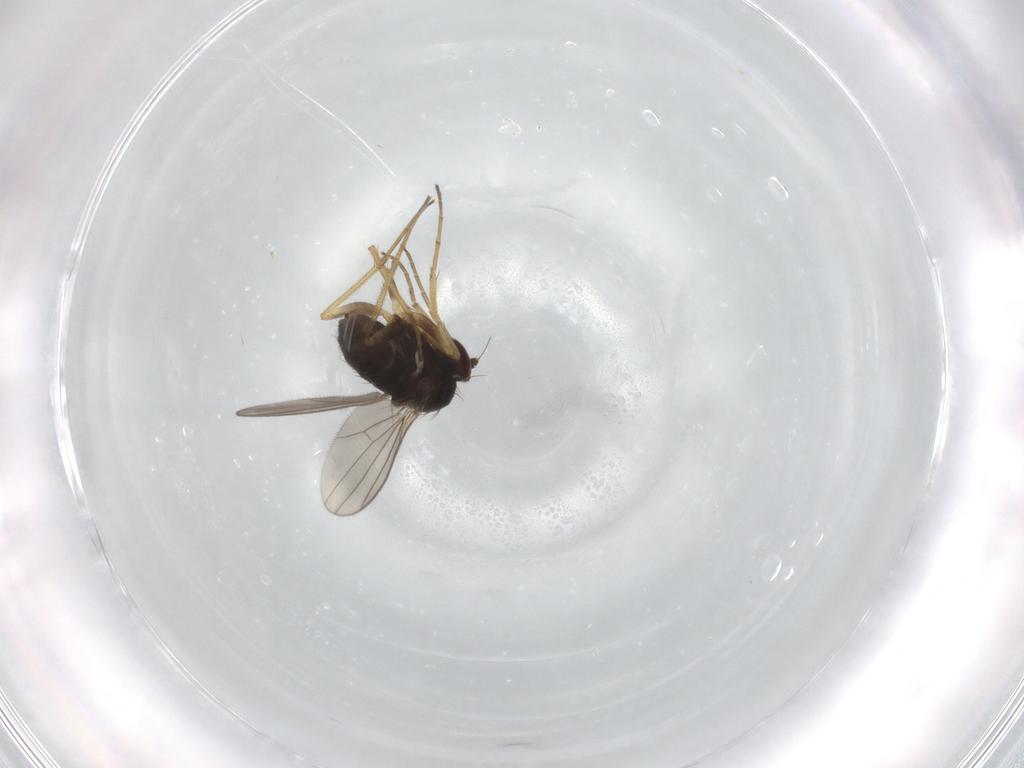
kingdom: Animalia
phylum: Arthropoda
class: Insecta
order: Diptera
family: Dolichopodidae
